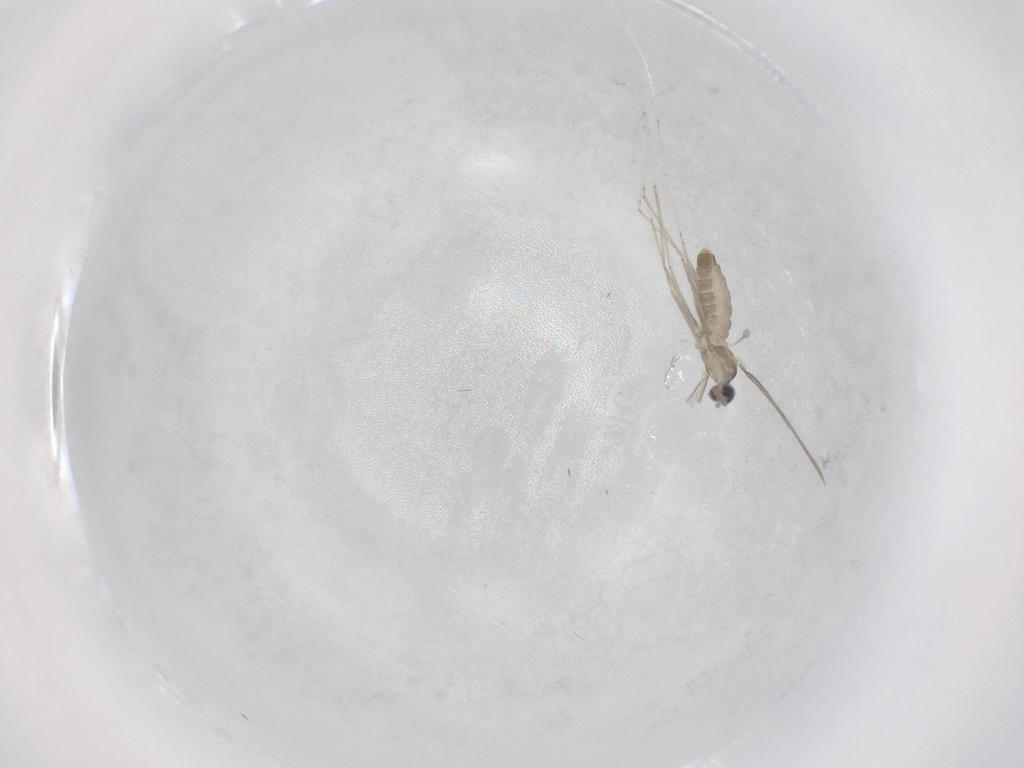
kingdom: Animalia
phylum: Arthropoda
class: Insecta
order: Diptera
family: Cecidomyiidae
